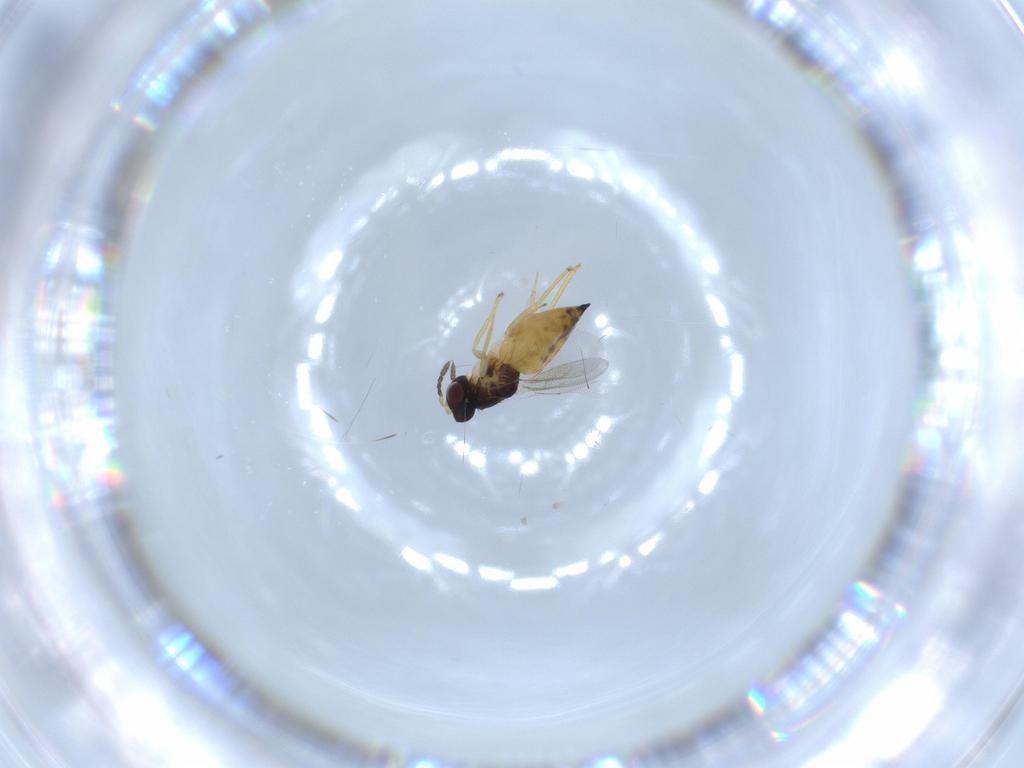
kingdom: Animalia
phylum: Arthropoda
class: Insecta
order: Hymenoptera
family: Eulophidae
